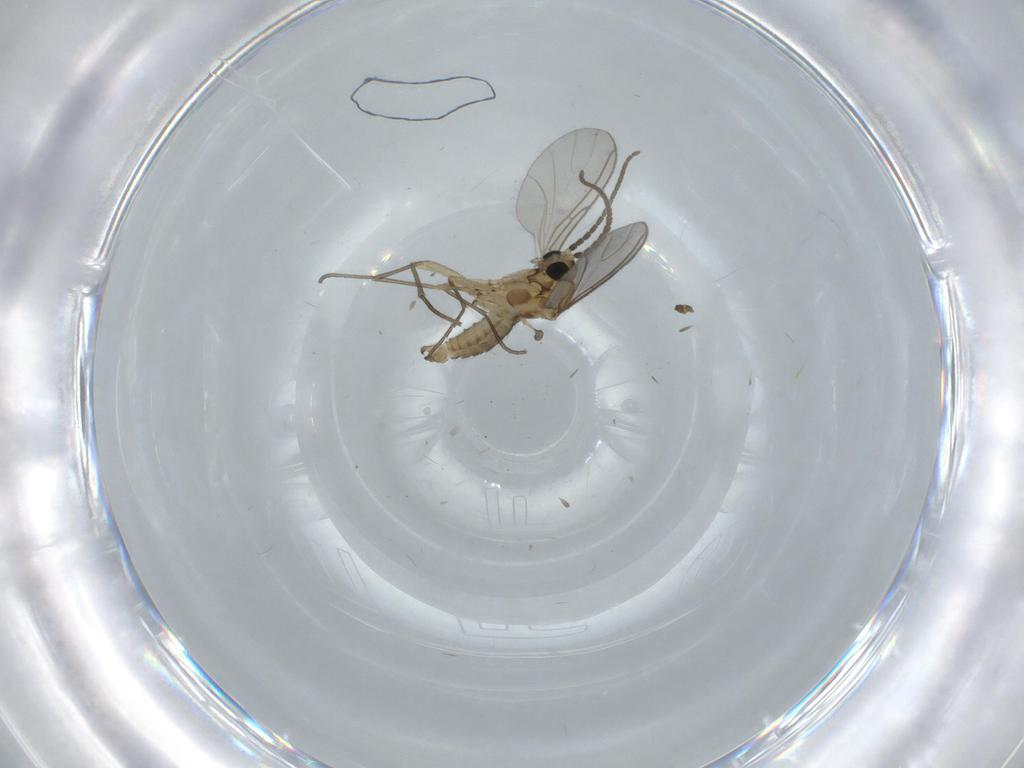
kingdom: Animalia
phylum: Arthropoda
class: Insecta
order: Diptera
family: Sciaridae
